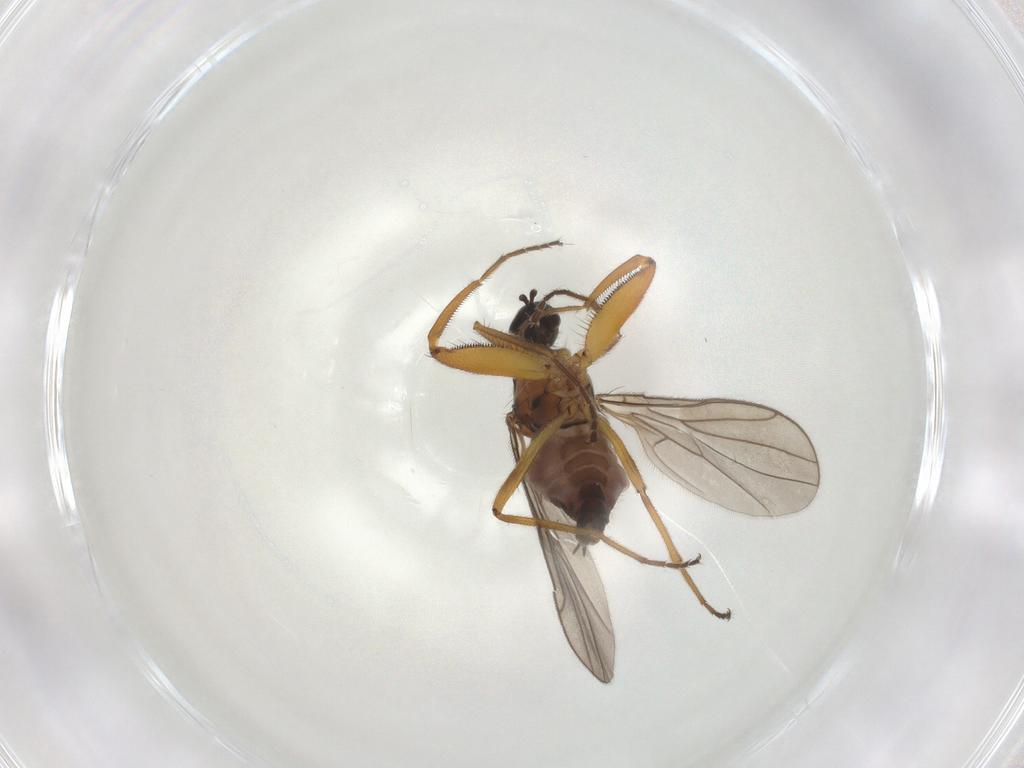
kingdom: Animalia
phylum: Arthropoda
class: Insecta
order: Diptera
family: Hybotidae
